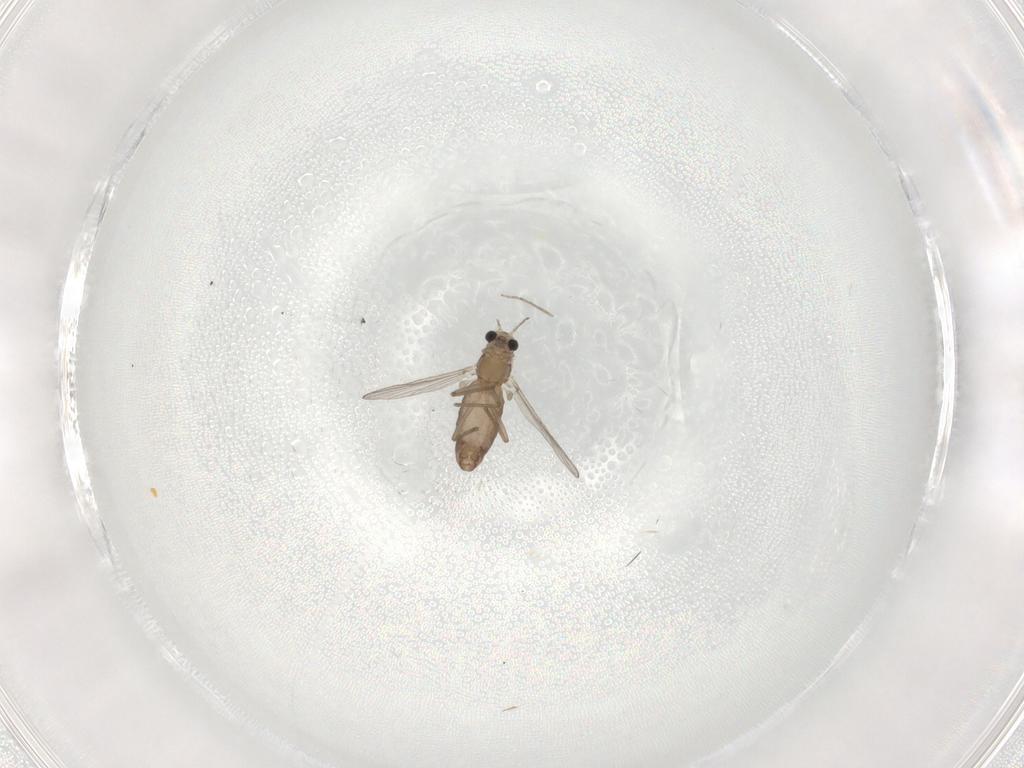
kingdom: Animalia
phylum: Arthropoda
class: Insecta
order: Diptera
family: Chironomidae
